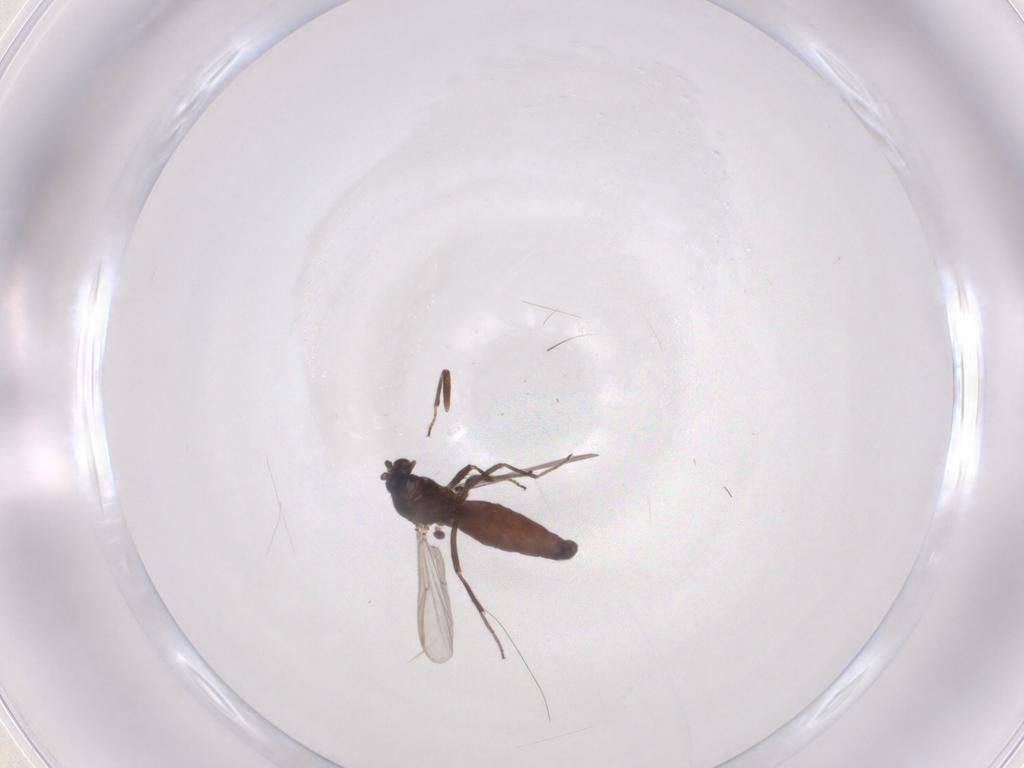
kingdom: Animalia
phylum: Arthropoda
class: Insecta
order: Diptera
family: Ceratopogonidae
